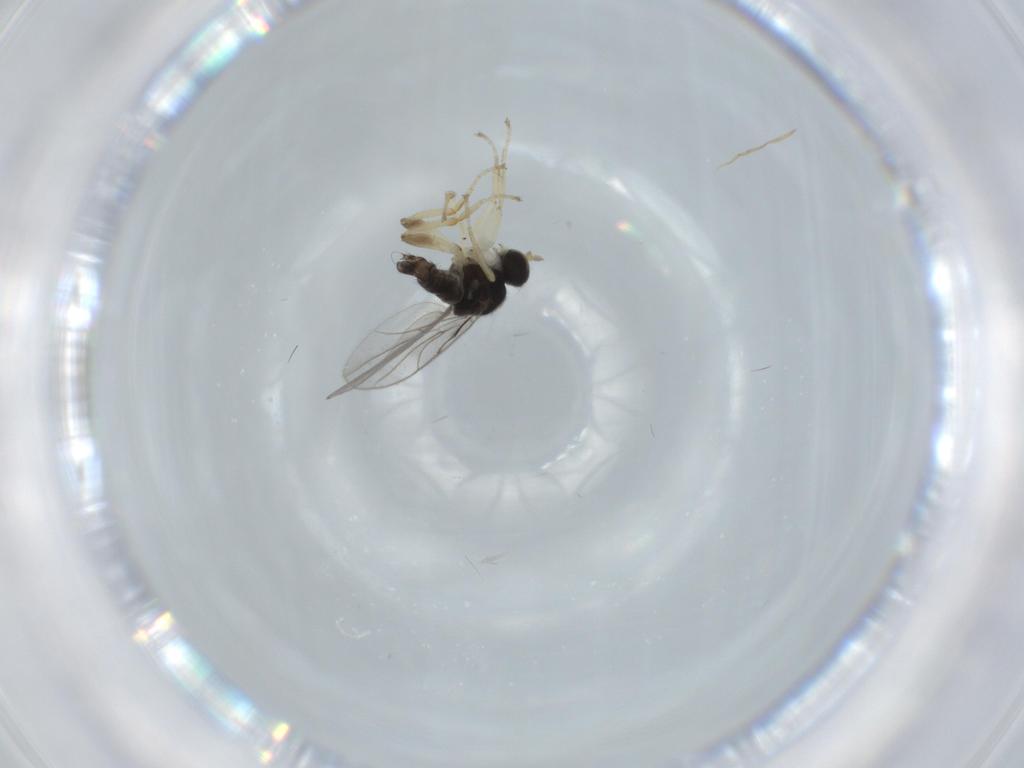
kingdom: Animalia
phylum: Arthropoda
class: Insecta
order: Diptera
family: Hybotidae
